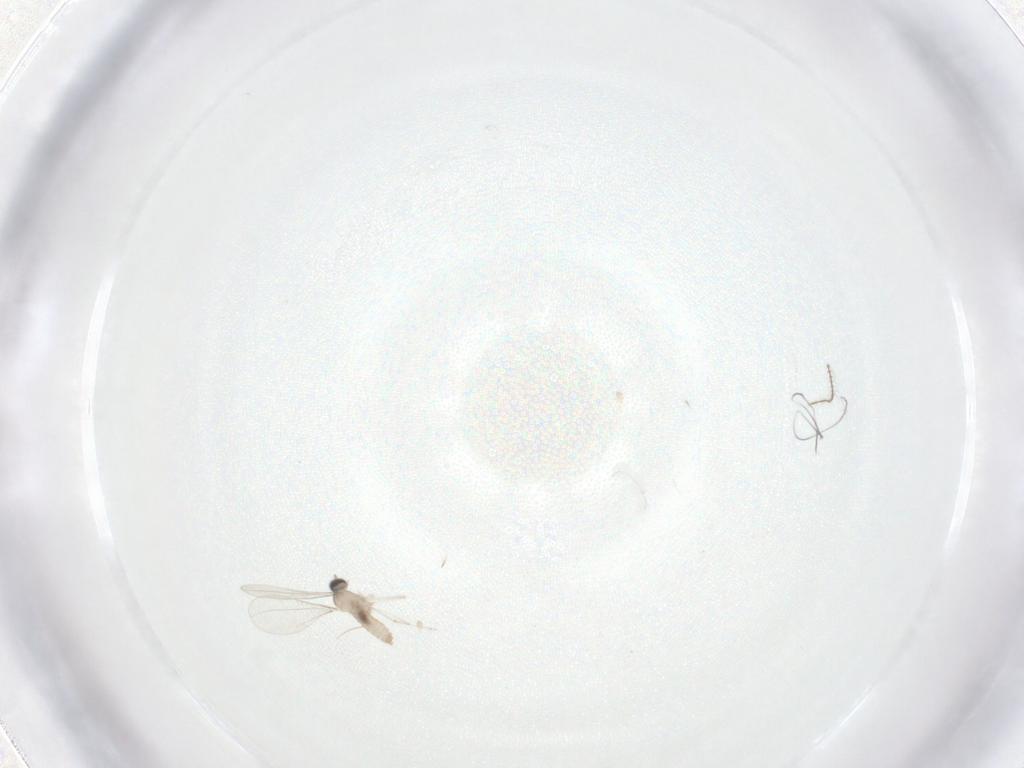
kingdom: Animalia
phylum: Arthropoda
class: Insecta
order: Diptera
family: Cecidomyiidae
